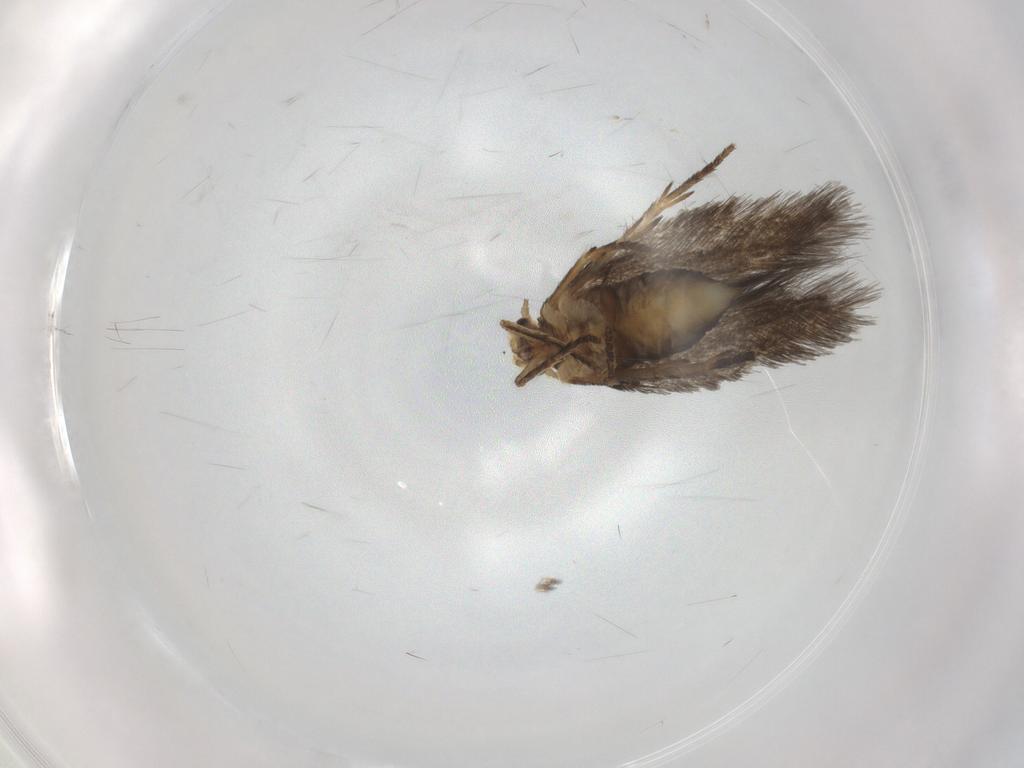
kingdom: Animalia
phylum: Arthropoda
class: Insecta
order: Lepidoptera
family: Nepticulidae
